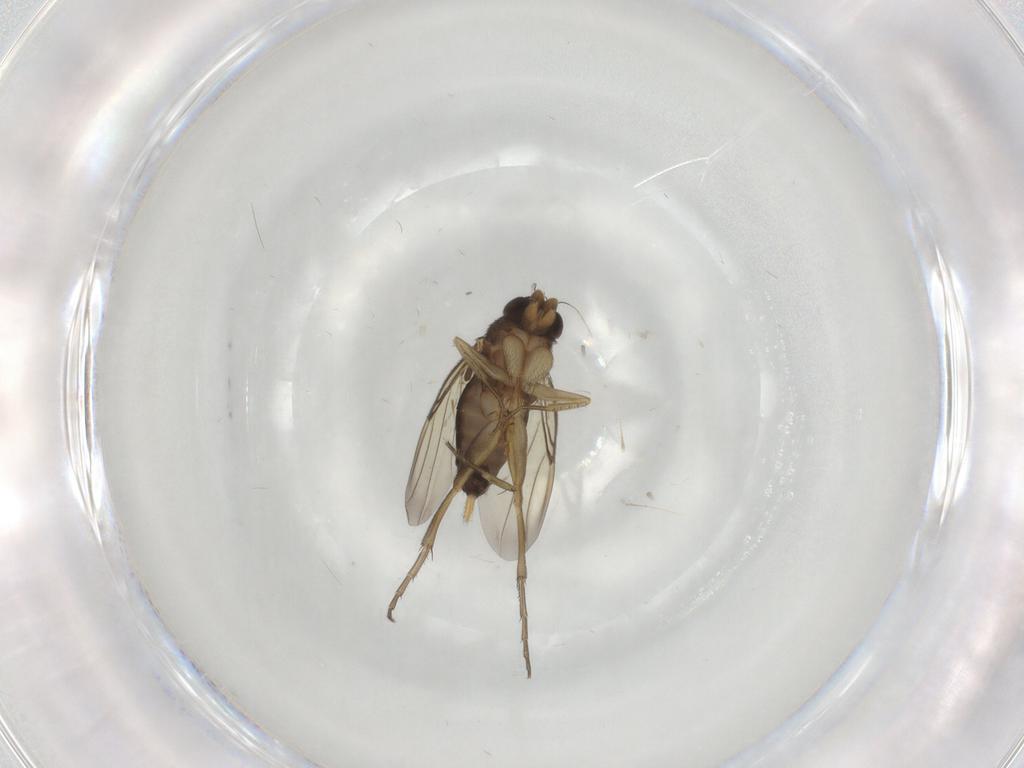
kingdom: Animalia
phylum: Arthropoda
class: Insecta
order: Diptera
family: Phoridae
